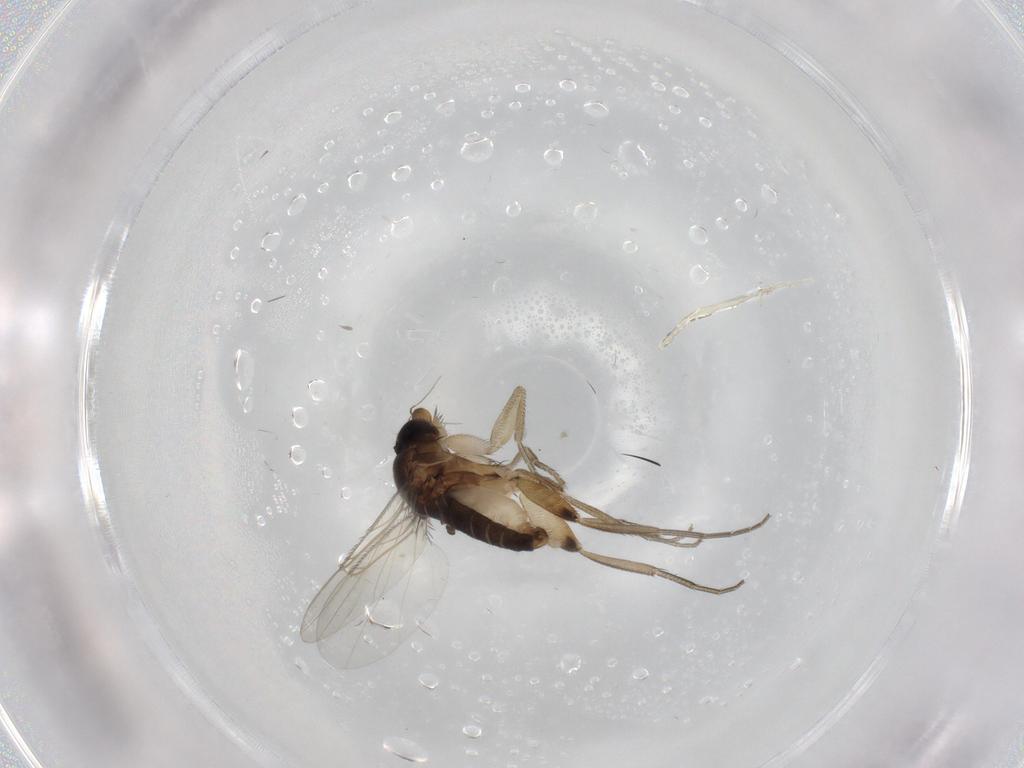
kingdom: Animalia
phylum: Arthropoda
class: Insecta
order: Diptera
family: Phoridae
